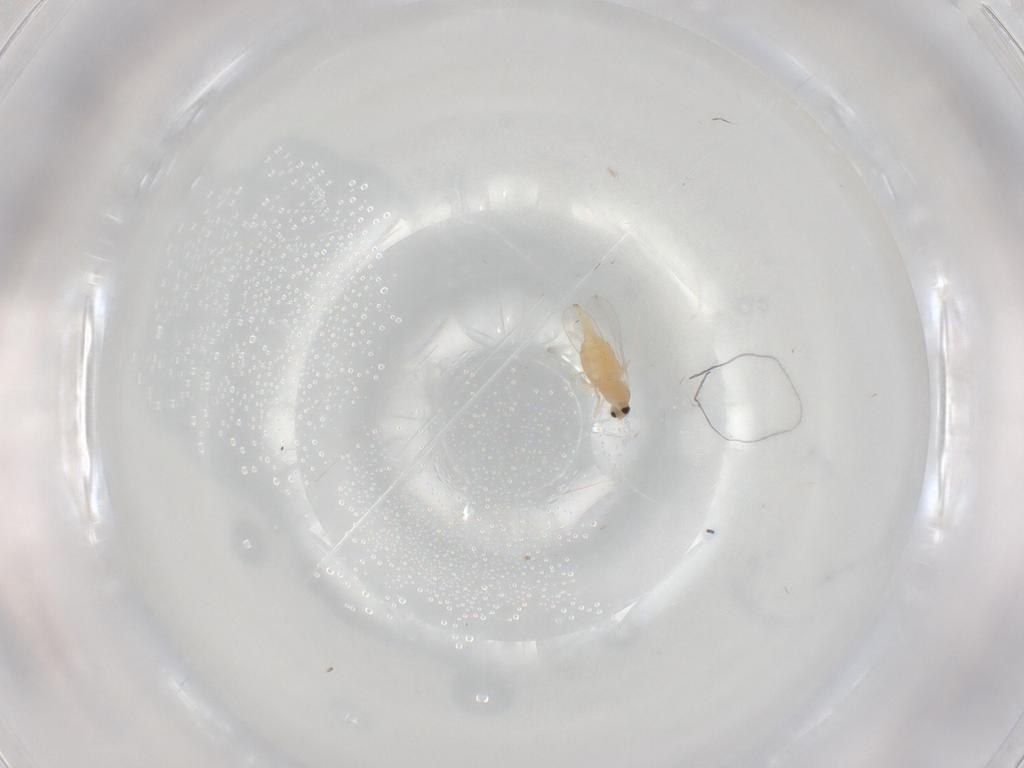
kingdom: Animalia
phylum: Arthropoda
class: Insecta
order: Diptera
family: Cecidomyiidae
